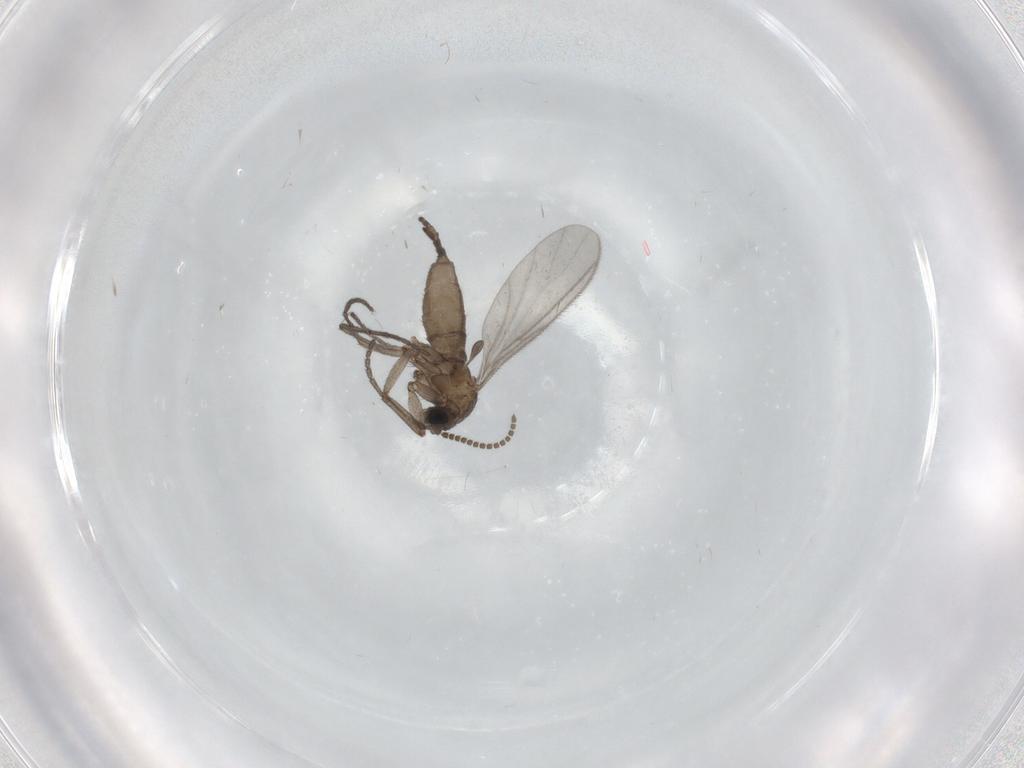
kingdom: Animalia
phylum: Arthropoda
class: Insecta
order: Diptera
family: Sciaridae
